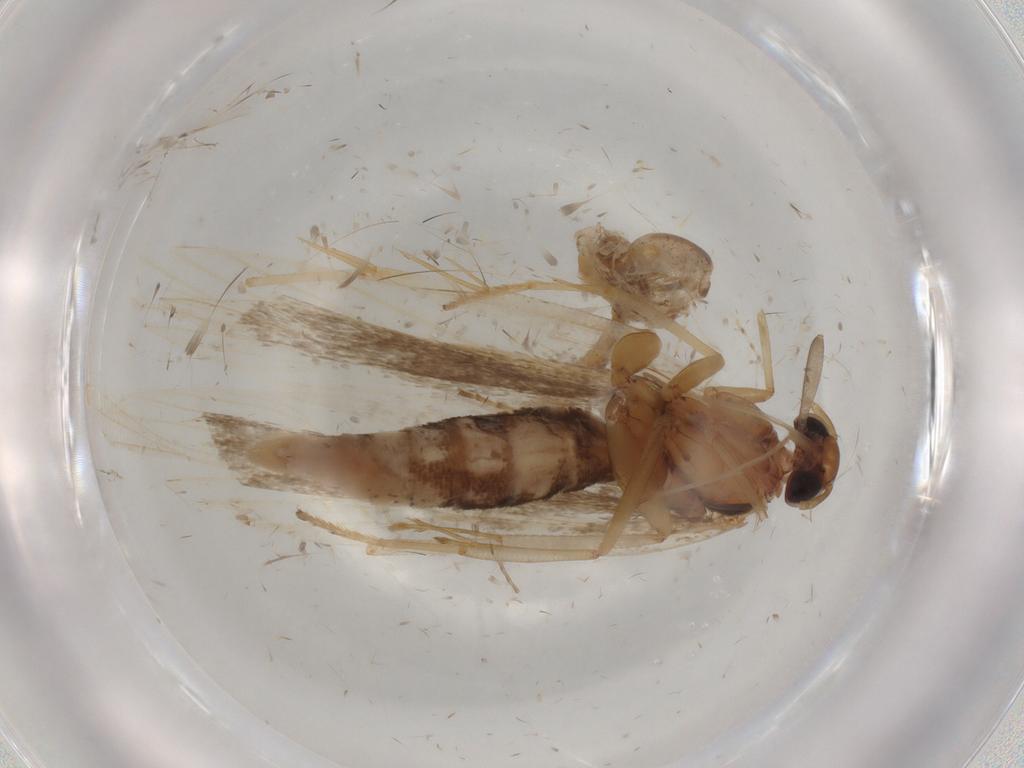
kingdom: Animalia
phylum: Arthropoda
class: Insecta
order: Lepidoptera
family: Gelechiidae
